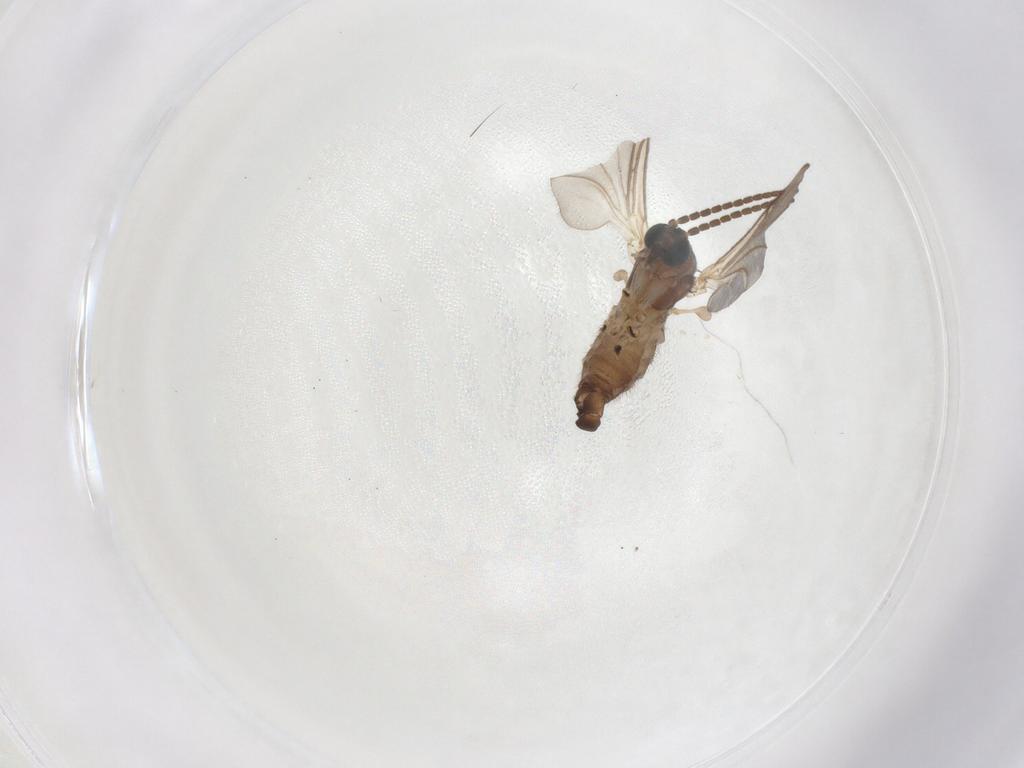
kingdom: Animalia
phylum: Arthropoda
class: Insecta
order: Diptera
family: Sciaridae
